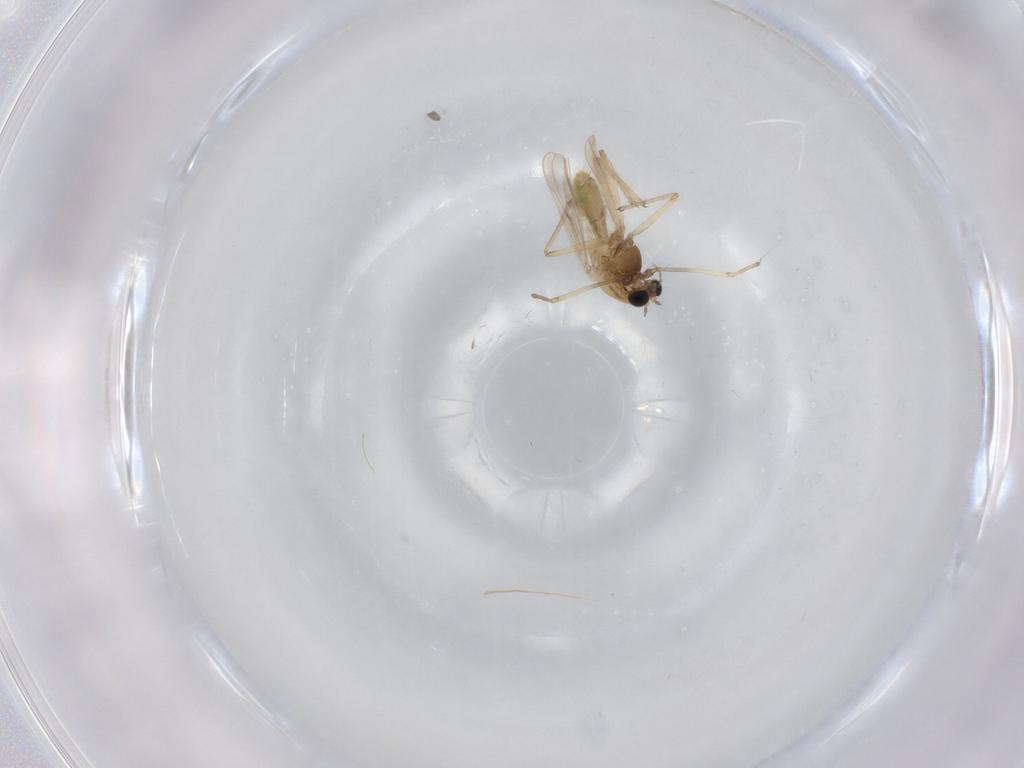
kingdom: Animalia
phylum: Arthropoda
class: Insecta
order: Diptera
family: Chironomidae
